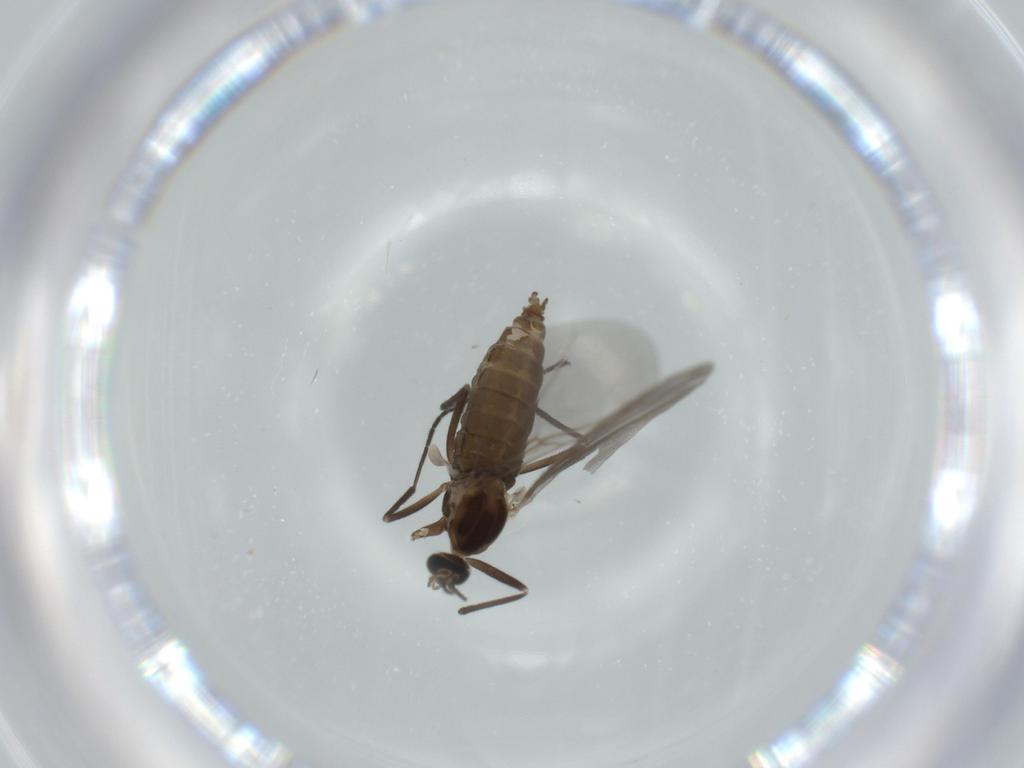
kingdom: Animalia
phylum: Arthropoda
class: Insecta
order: Diptera
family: Cecidomyiidae
